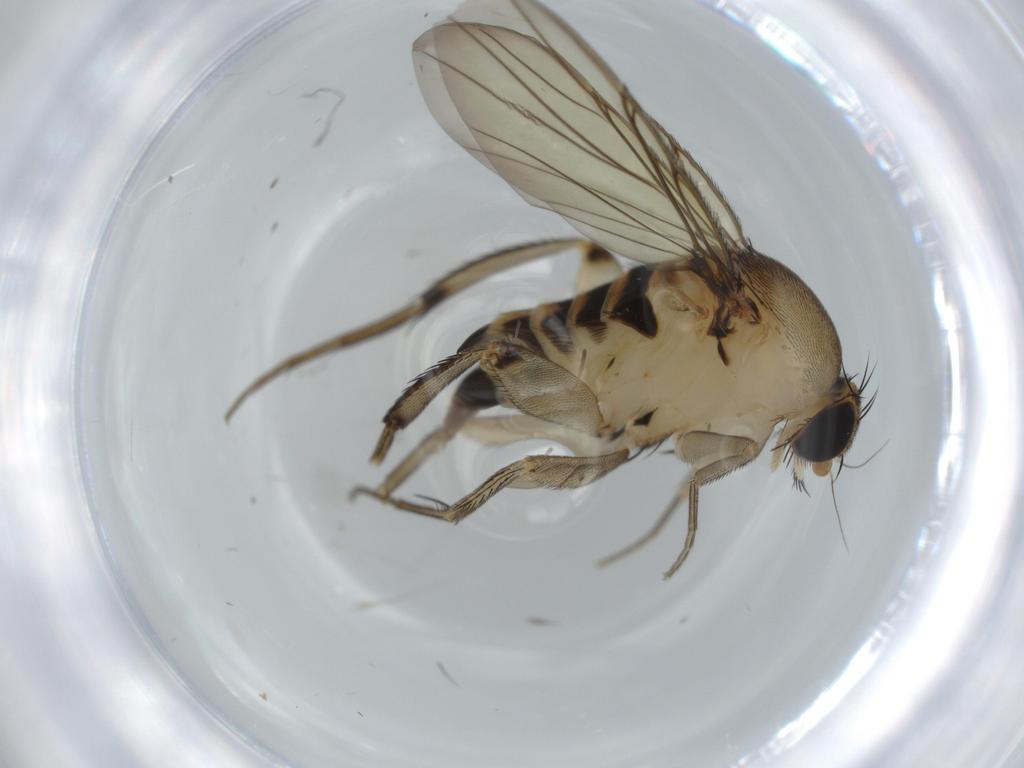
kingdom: Animalia
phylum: Arthropoda
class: Insecta
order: Diptera
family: Phoridae
